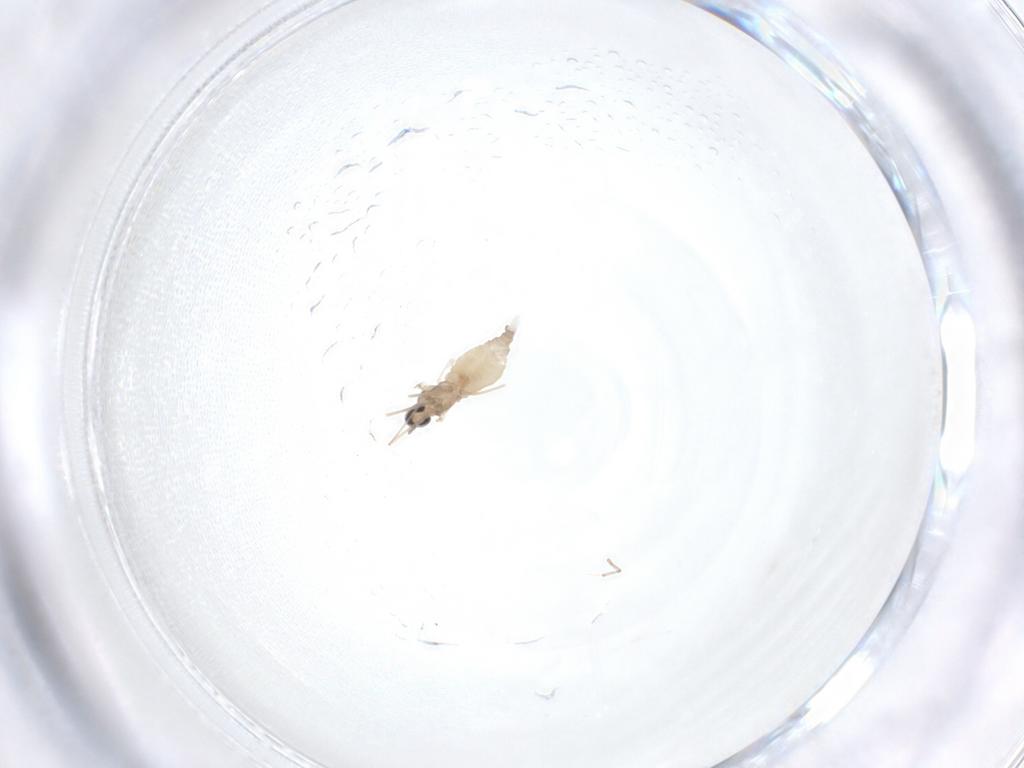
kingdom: Animalia
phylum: Arthropoda
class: Insecta
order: Diptera
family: Cecidomyiidae
